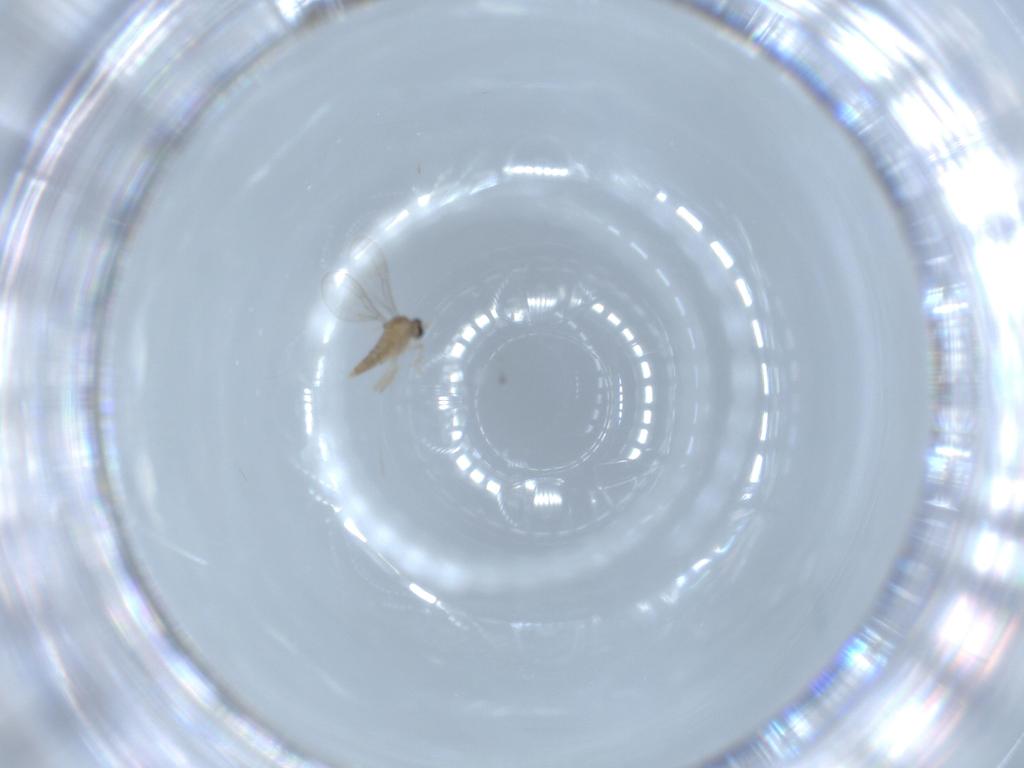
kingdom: Animalia
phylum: Arthropoda
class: Insecta
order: Diptera
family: Cecidomyiidae
